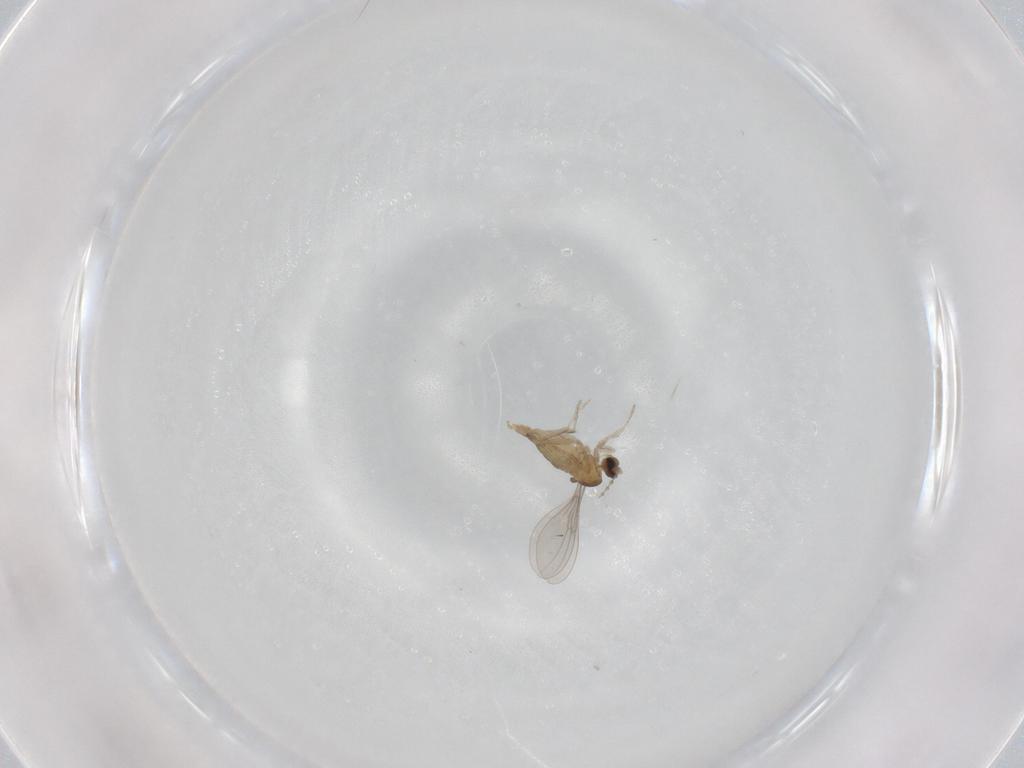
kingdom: Animalia
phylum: Arthropoda
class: Insecta
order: Diptera
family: Cecidomyiidae
